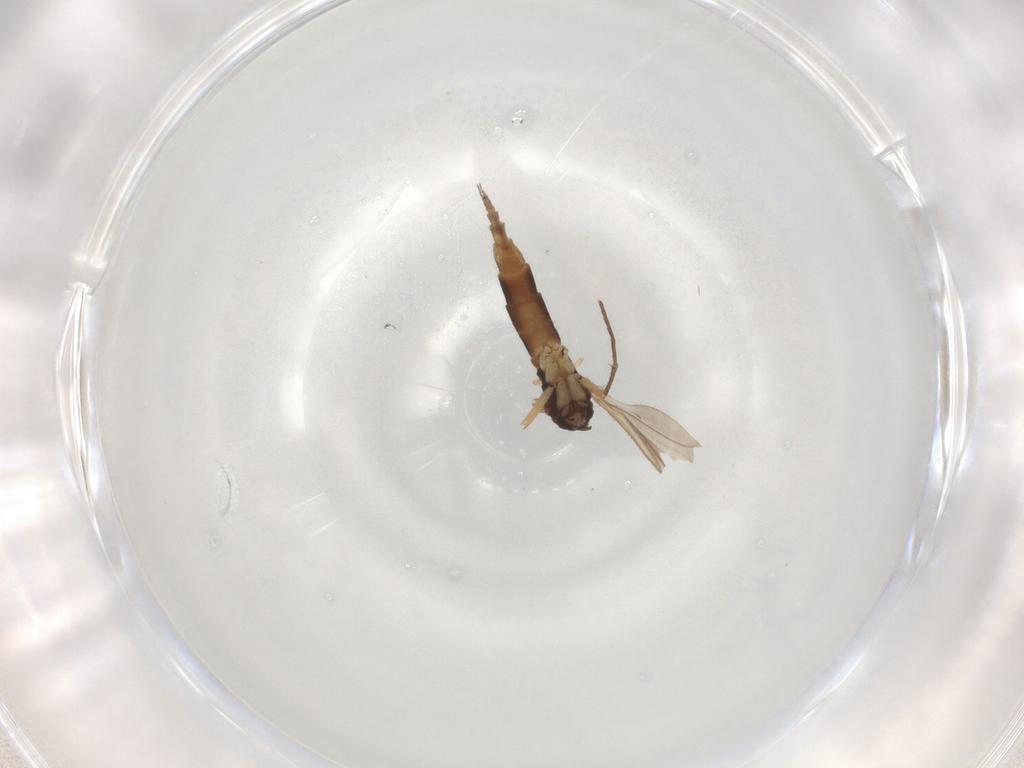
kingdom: Animalia
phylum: Arthropoda
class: Insecta
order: Diptera
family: Sciaridae
